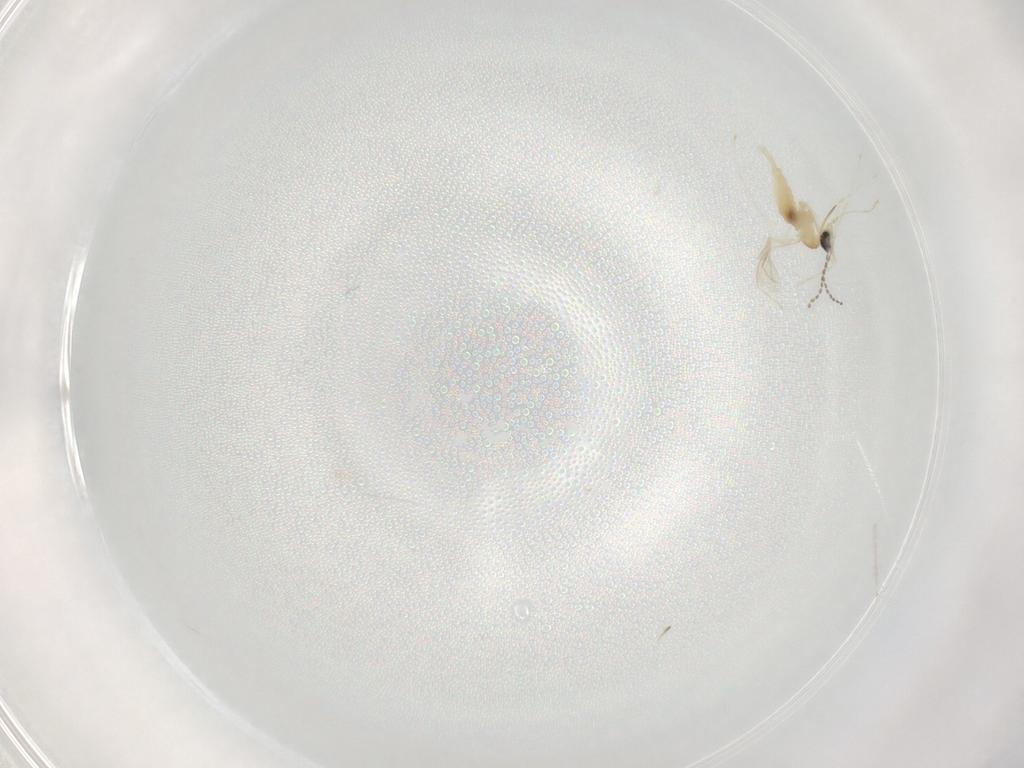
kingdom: Animalia
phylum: Arthropoda
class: Insecta
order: Diptera
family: Cecidomyiidae
